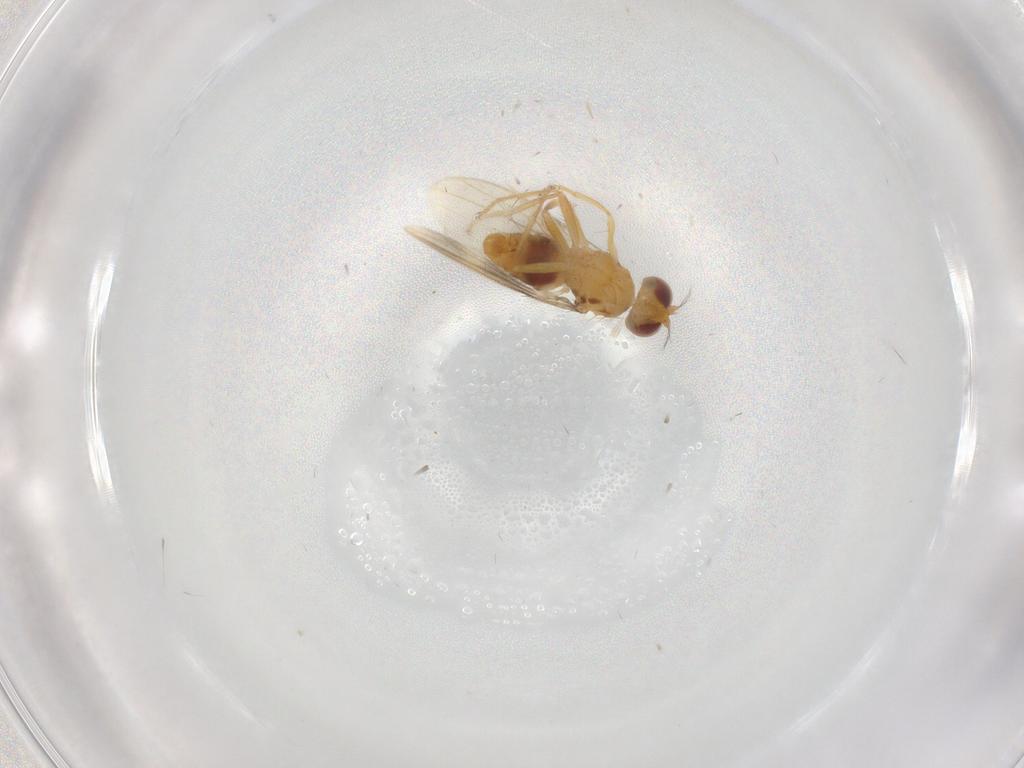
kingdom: Animalia
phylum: Arthropoda
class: Insecta
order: Diptera
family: Periscelididae
